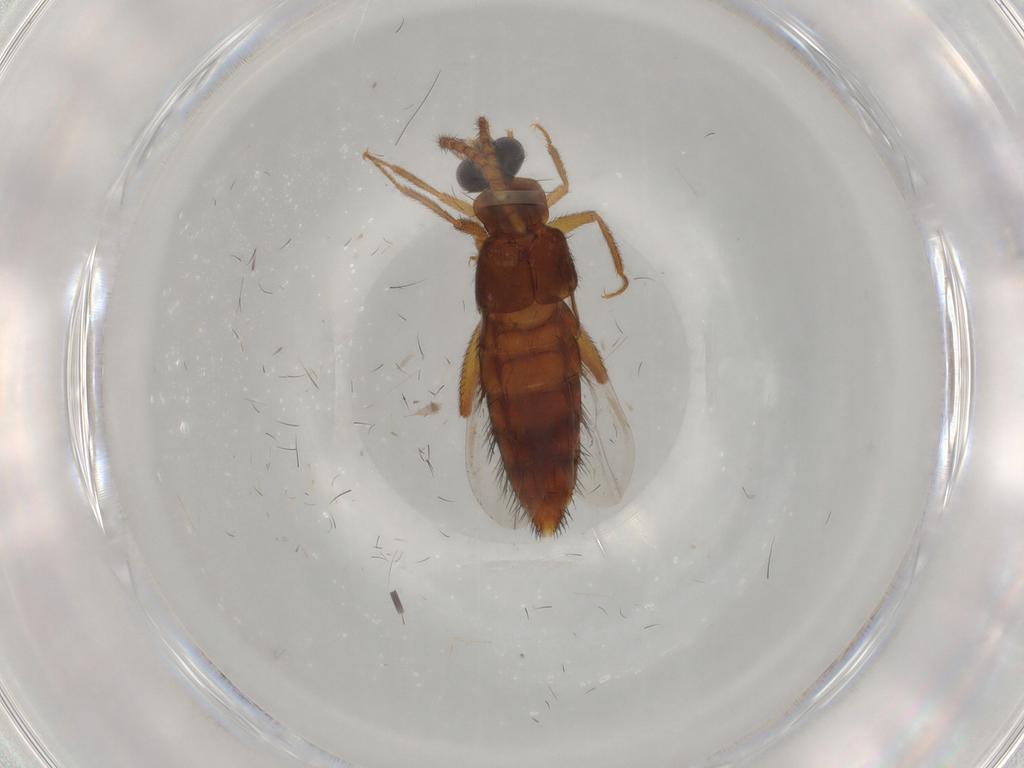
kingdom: Animalia
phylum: Arthropoda
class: Insecta
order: Coleoptera
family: Staphylinidae
